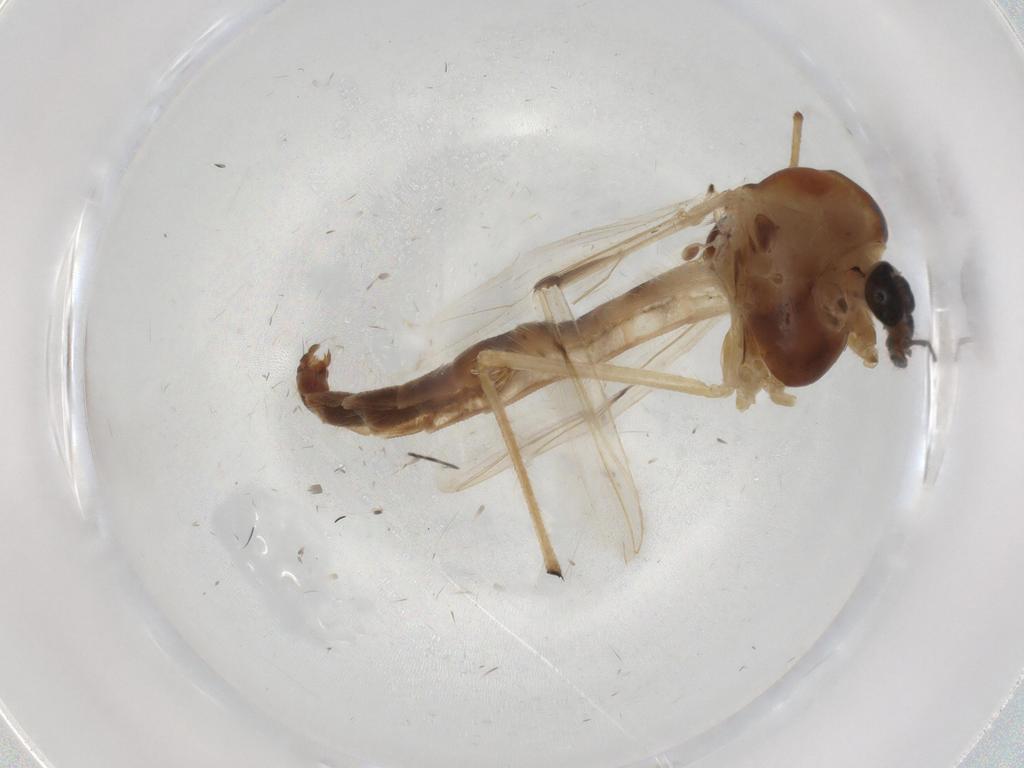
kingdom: Animalia
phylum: Arthropoda
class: Insecta
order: Diptera
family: Chironomidae
